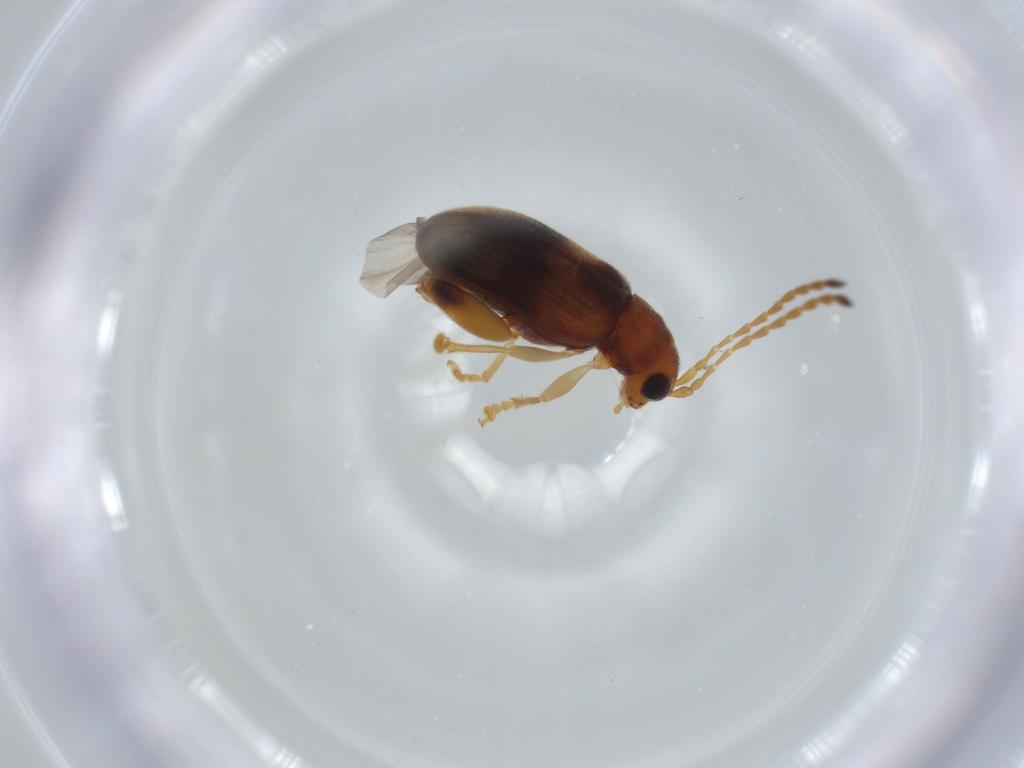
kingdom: Animalia
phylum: Arthropoda
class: Insecta
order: Coleoptera
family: Chrysomelidae
